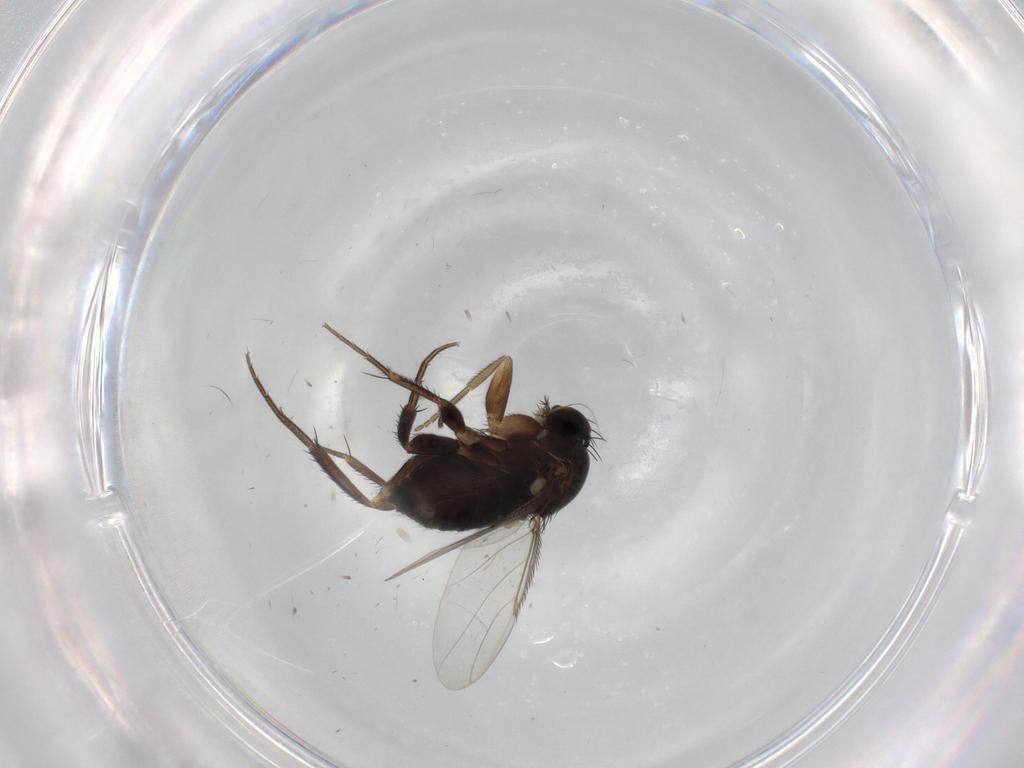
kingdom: Animalia
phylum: Arthropoda
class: Insecta
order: Diptera
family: Phoridae
